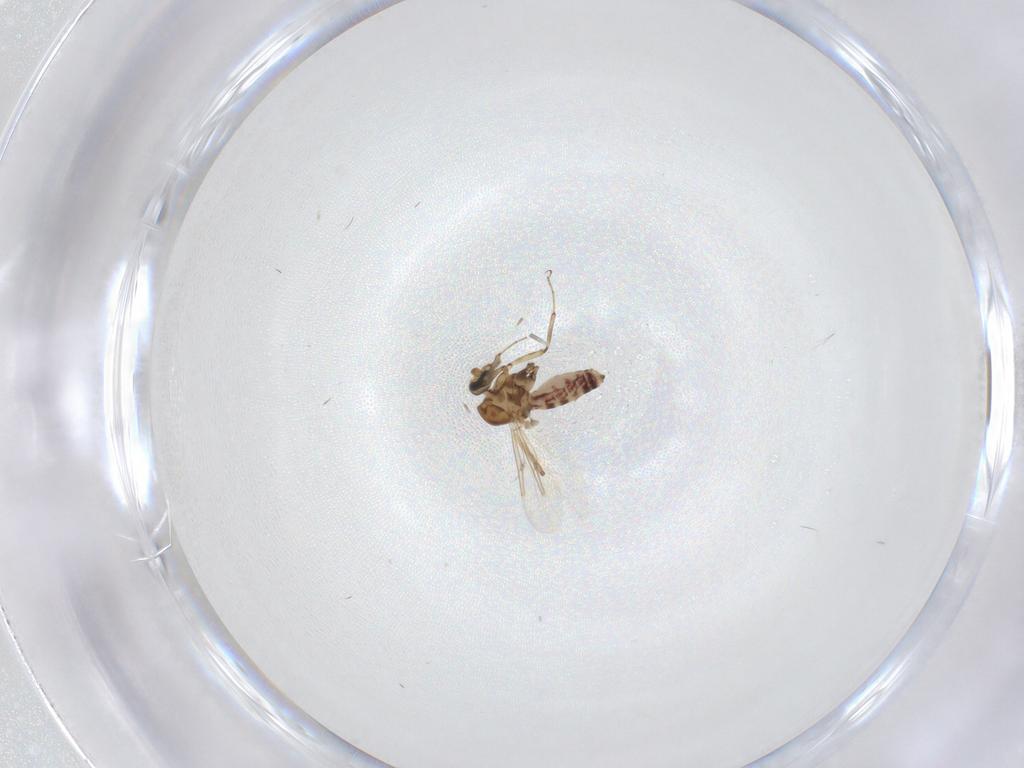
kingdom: Animalia
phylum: Arthropoda
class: Insecta
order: Diptera
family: Ceratopogonidae
